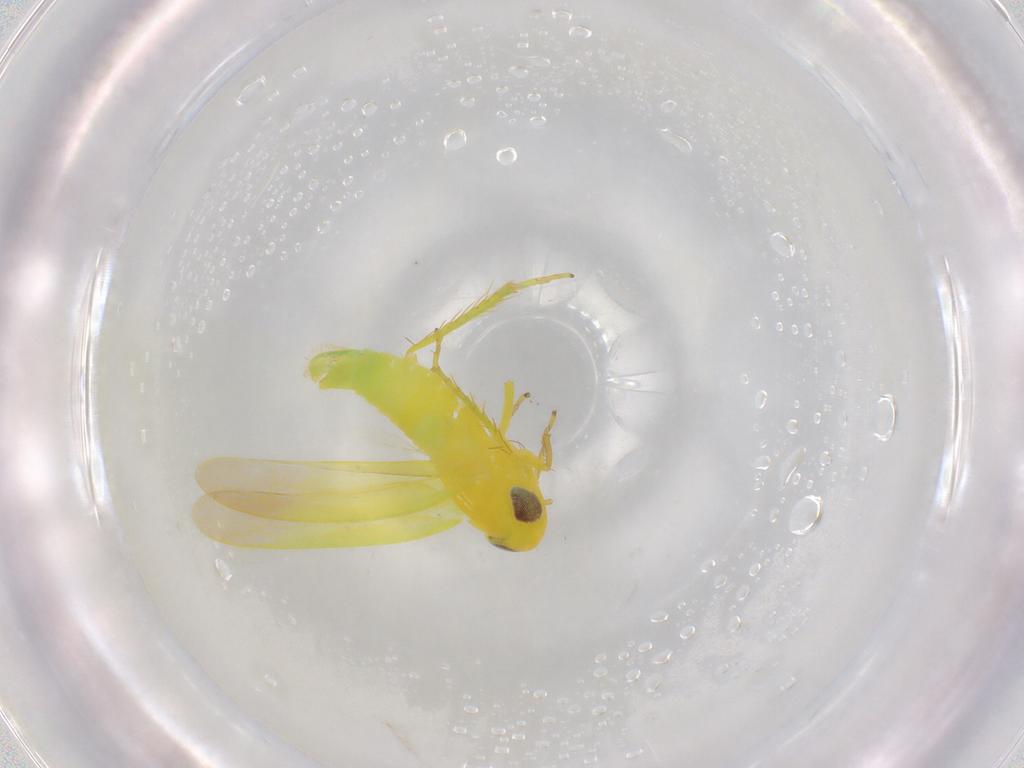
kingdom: Animalia
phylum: Arthropoda
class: Insecta
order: Hemiptera
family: Cicadellidae
